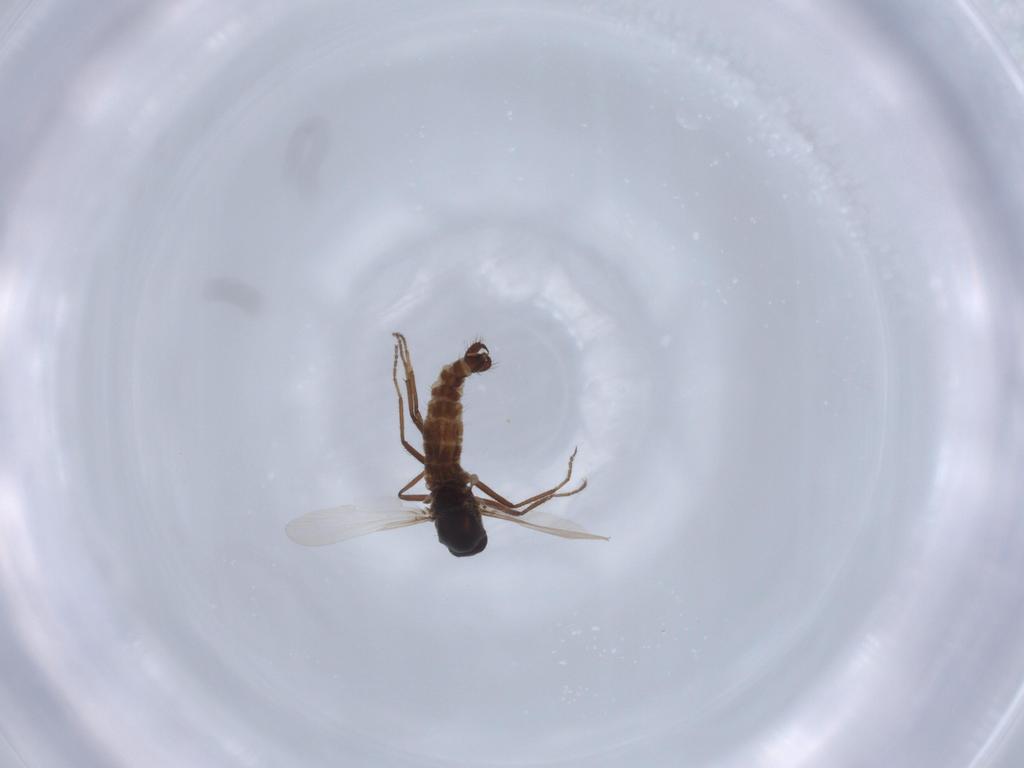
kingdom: Animalia
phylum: Arthropoda
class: Insecta
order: Diptera
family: Ceratopogonidae
